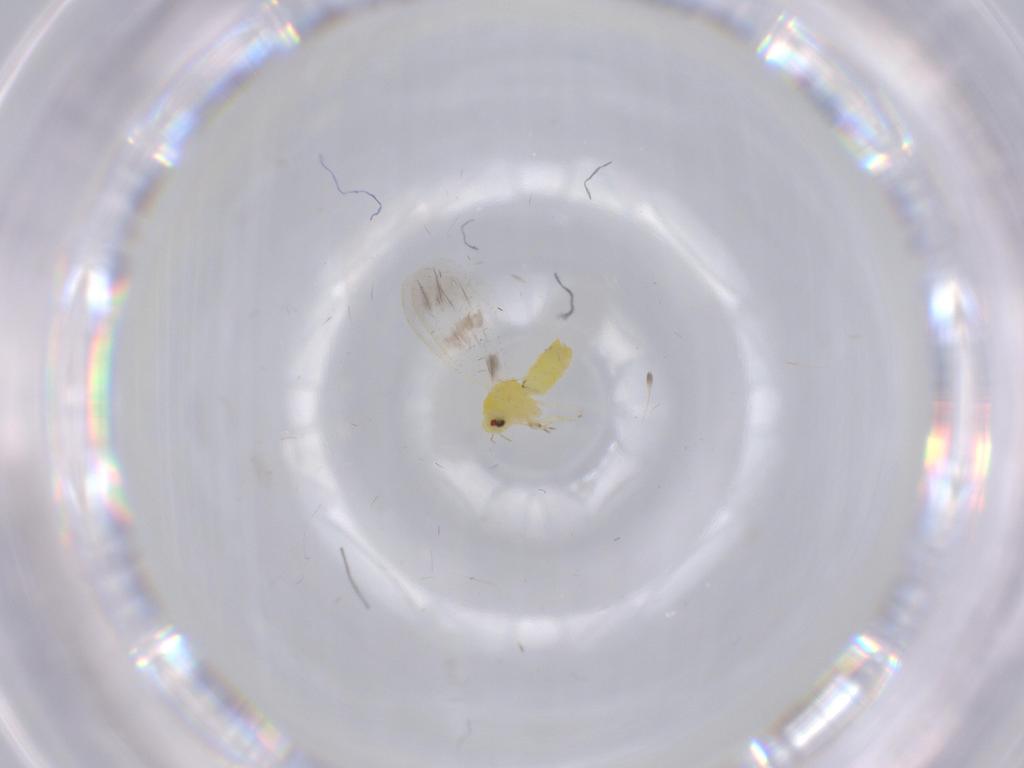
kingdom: Animalia
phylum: Arthropoda
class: Insecta
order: Hemiptera
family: Aleyrodidae
